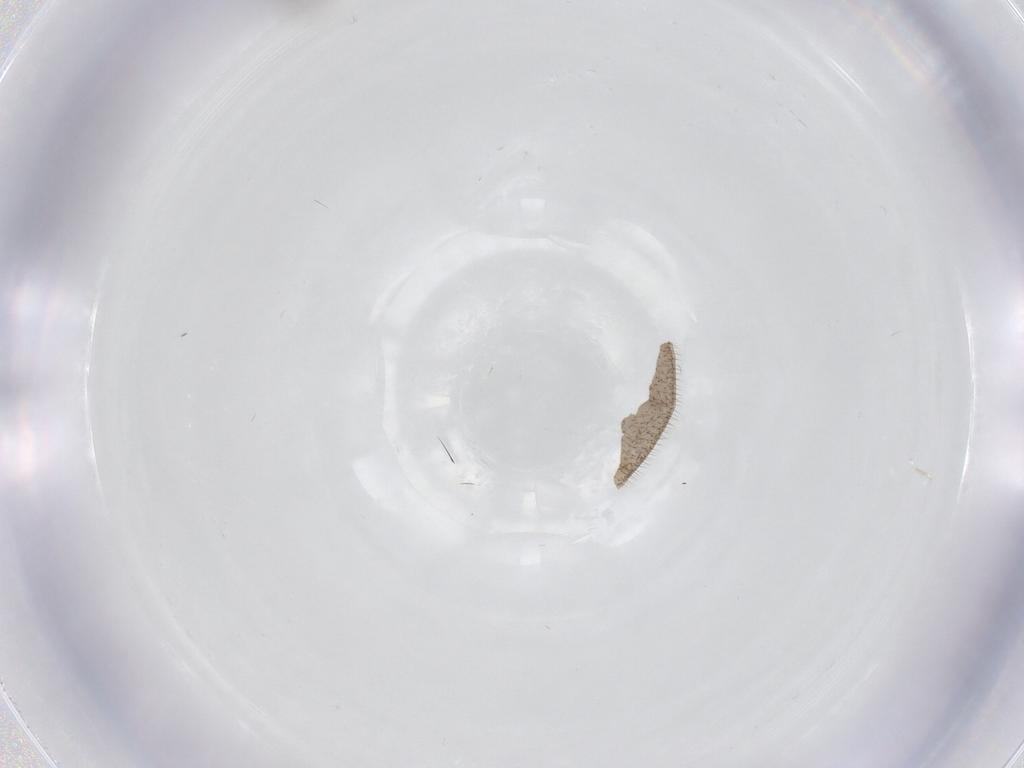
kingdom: Animalia
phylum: Arthropoda
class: Insecta
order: Diptera
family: Ceratopogonidae
